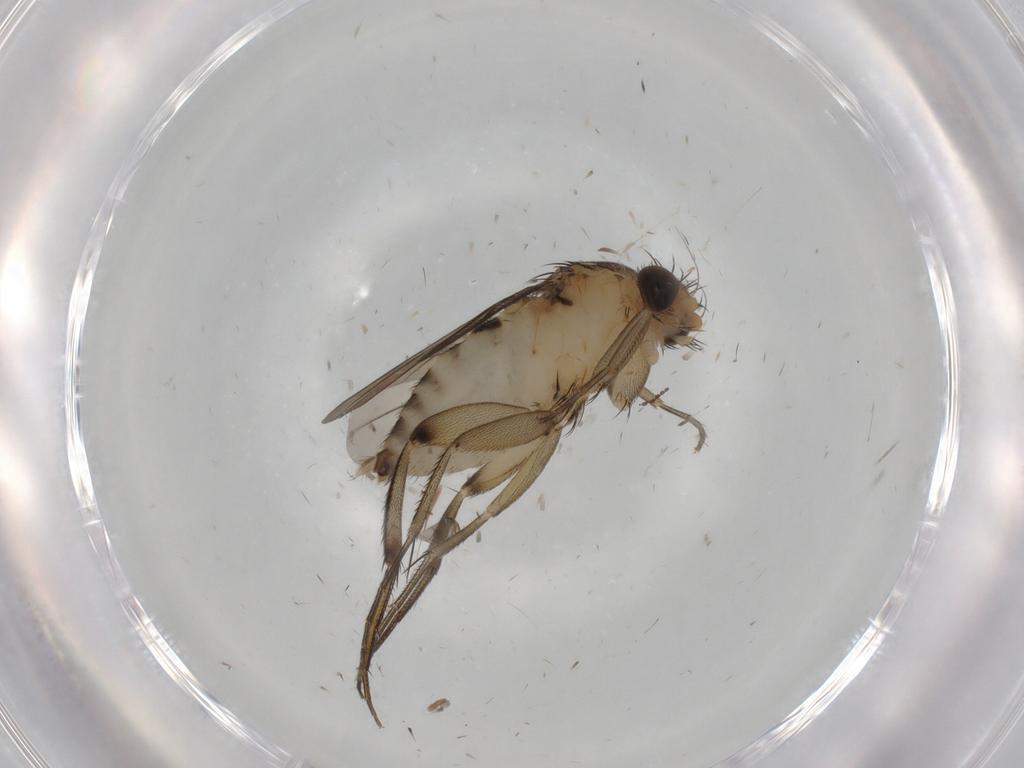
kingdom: Animalia
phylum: Arthropoda
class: Insecta
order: Diptera
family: Phoridae
